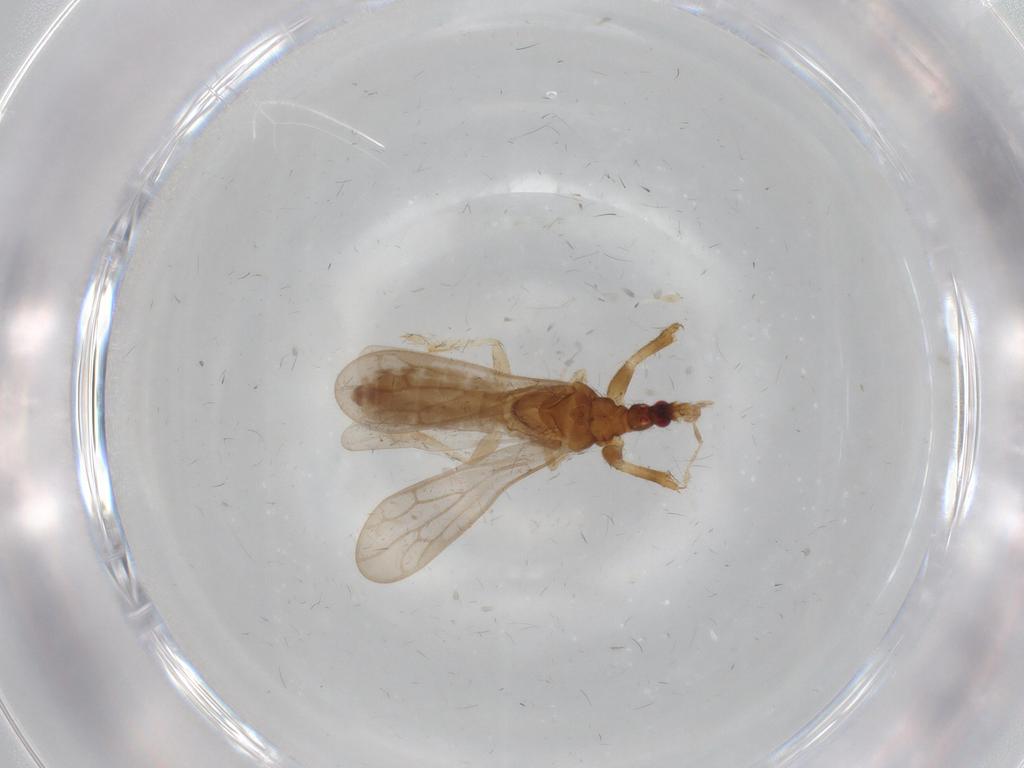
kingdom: Animalia
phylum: Arthropoda
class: Insecta
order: Hemiptera
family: Enicocephalidae
